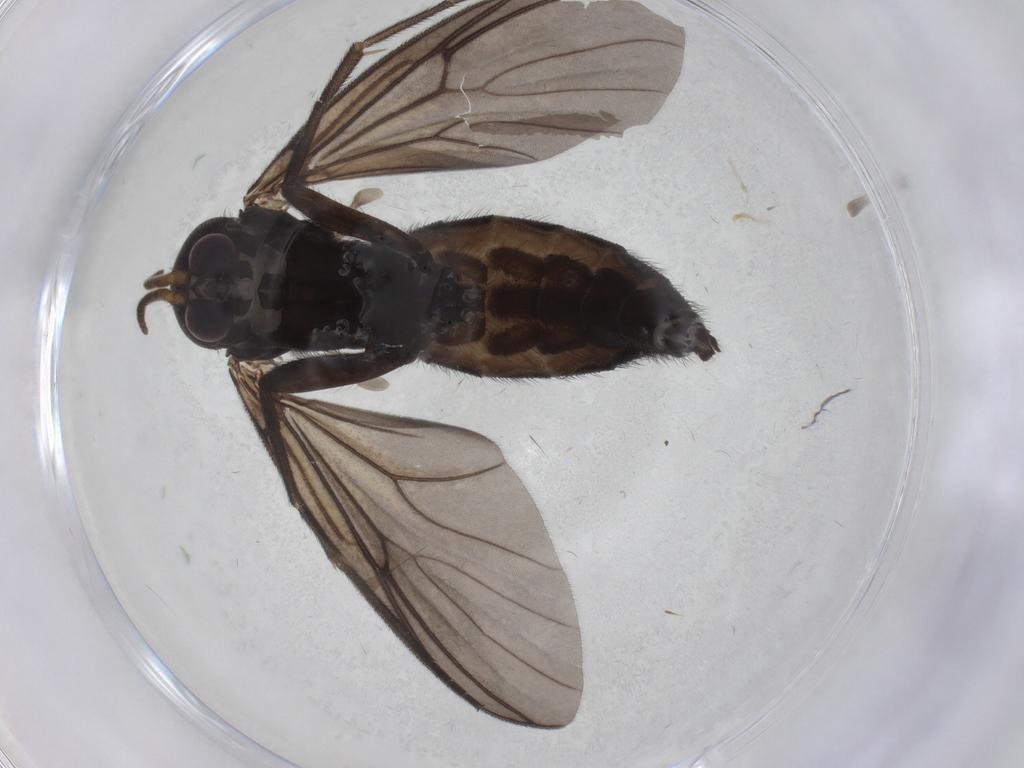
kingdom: Animalia
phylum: Arthropoda
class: Insecta
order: Diptera
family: Mycetophilidae
